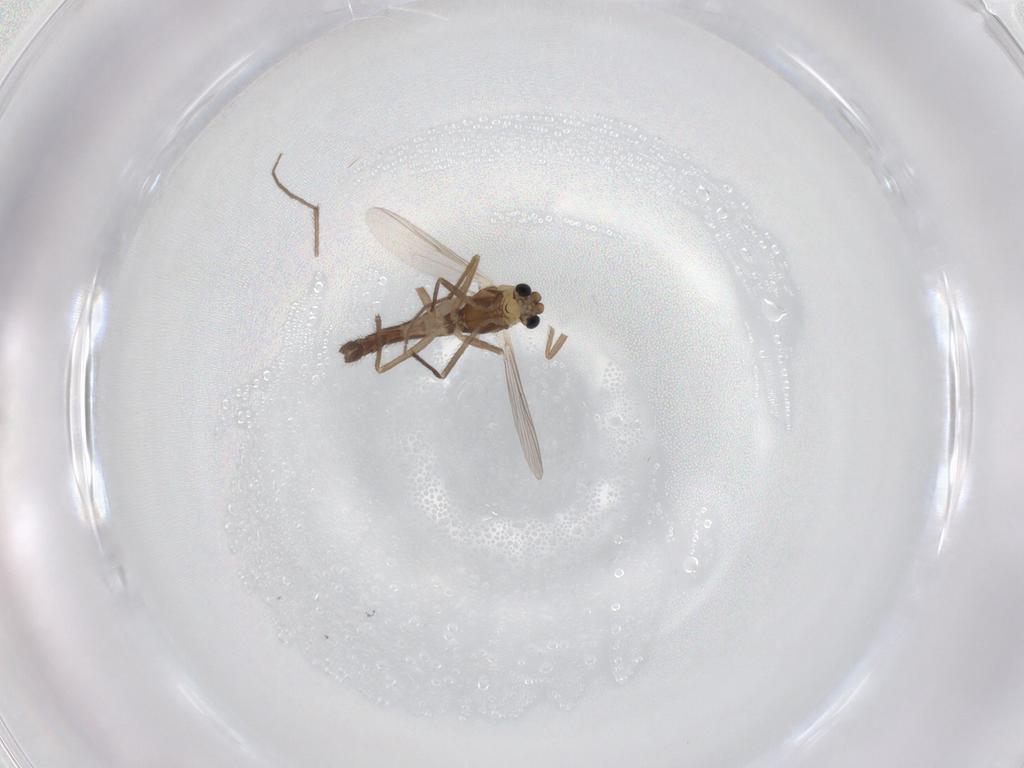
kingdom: Animalia
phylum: Arthropoda
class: Insecta
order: Diptera
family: Chironomidae
